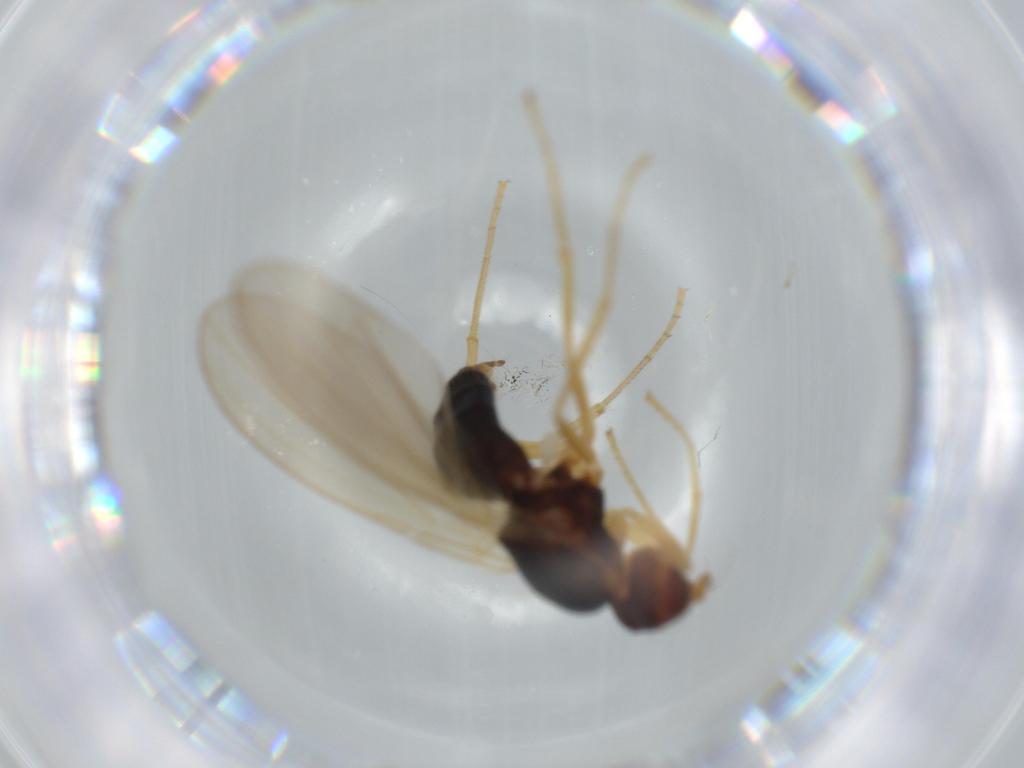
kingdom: Animalia
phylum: Arthropoda
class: Insecta
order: Diptera
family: Psilidae
